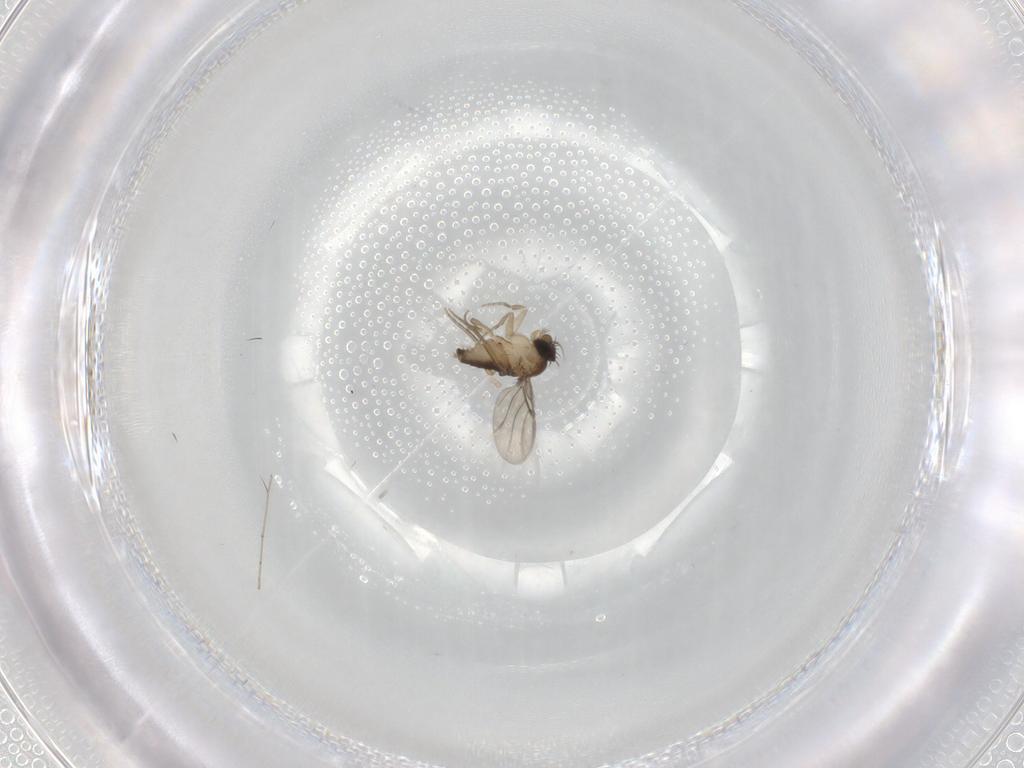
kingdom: Animalia
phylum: Arthropoda
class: Insecta
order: Diptera
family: Phoridae
